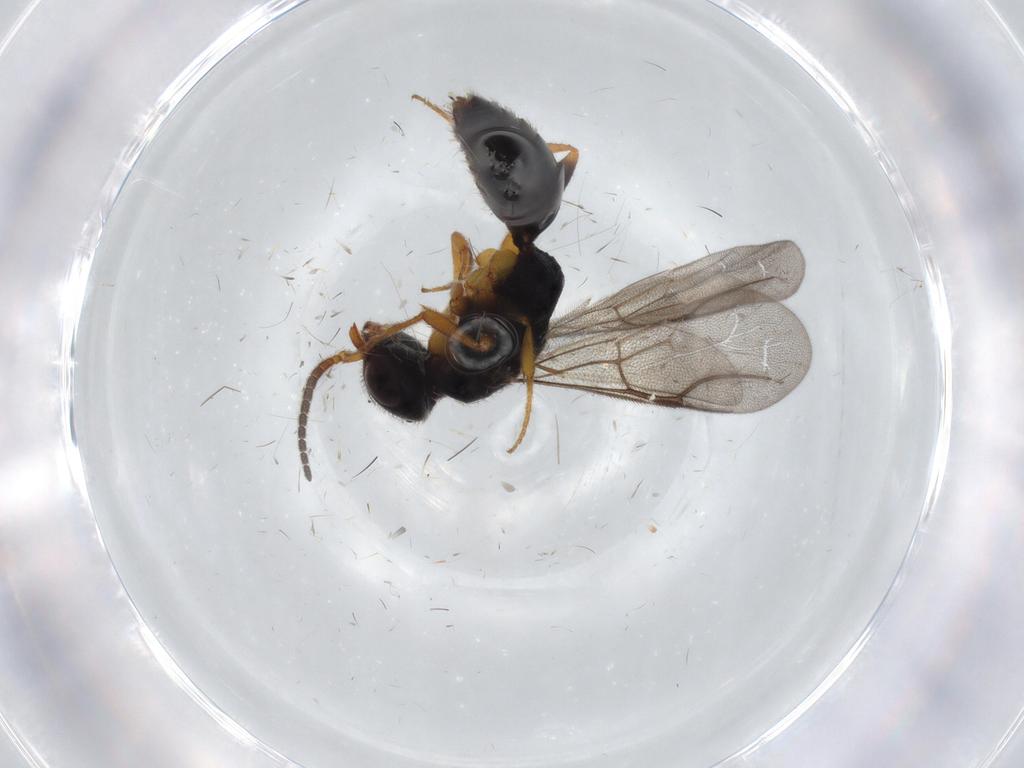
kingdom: Animalia
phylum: Arthropoda
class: Insecta
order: Hymenoptera
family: Bethylidae
